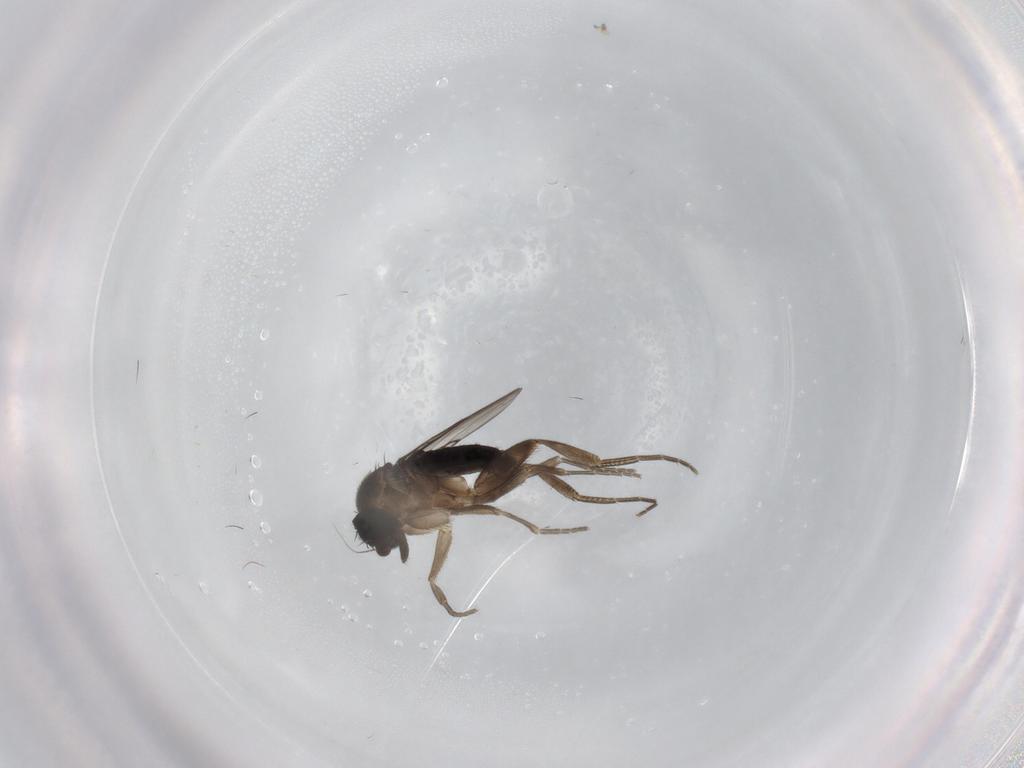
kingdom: Animalia
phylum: Arthropoda
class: Insecta
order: Diptera
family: Phoridae
